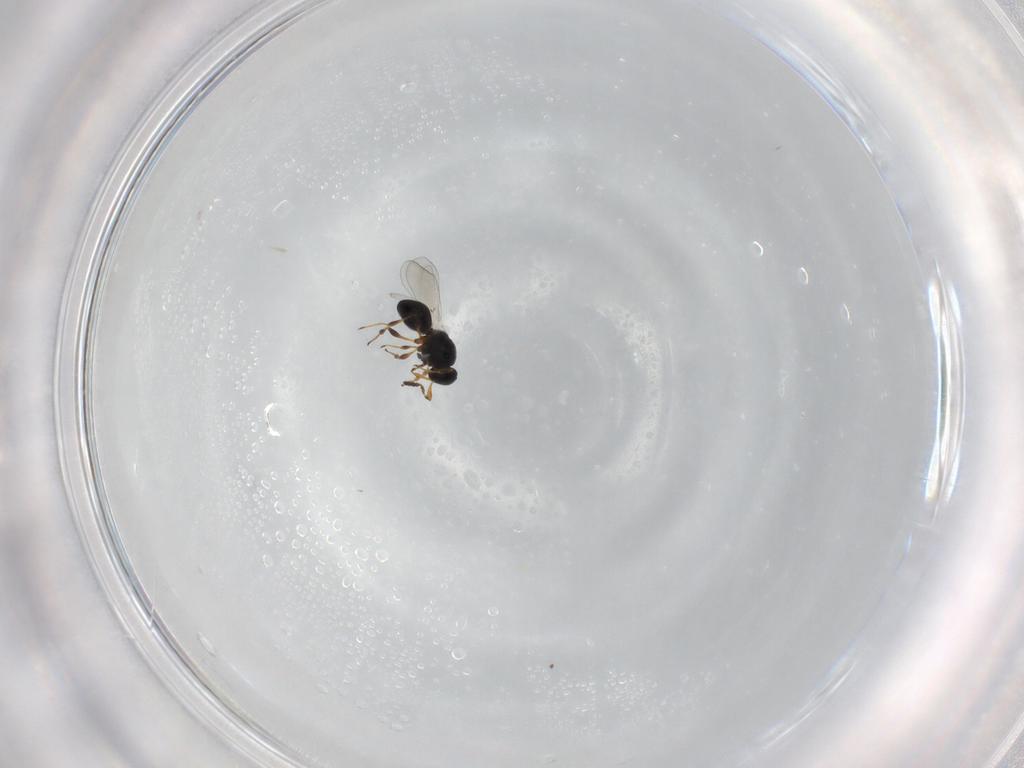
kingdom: Animalia
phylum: Arthropoda
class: Insecta
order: Hymenoptera
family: Platygastridae
